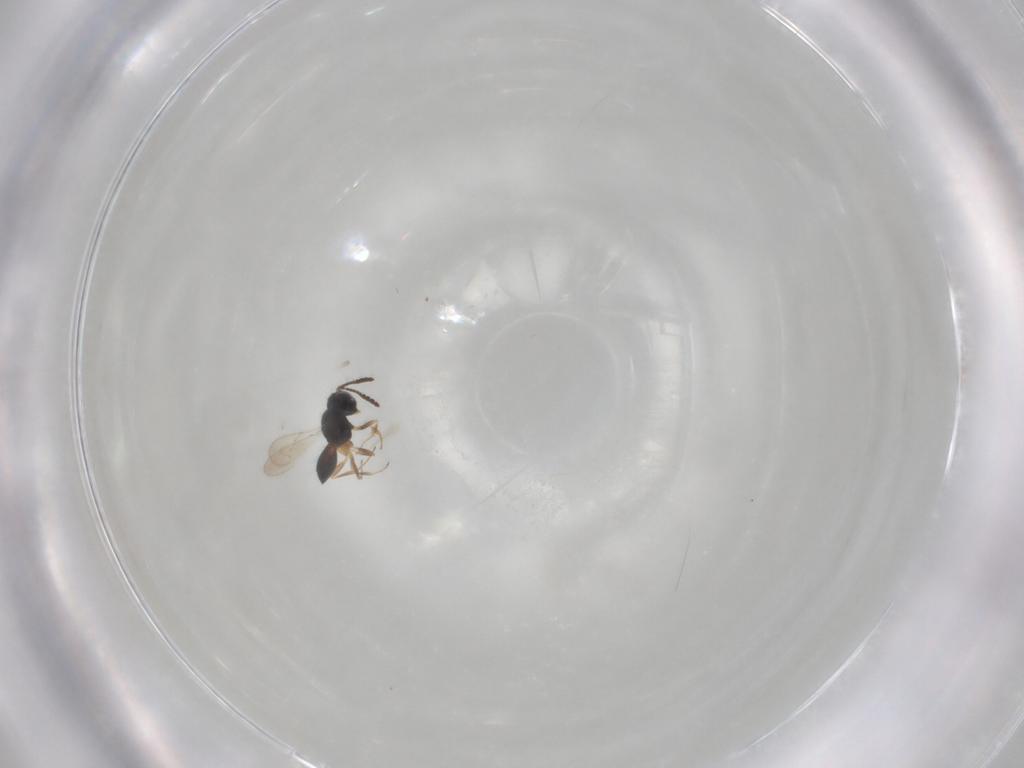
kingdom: Animalia
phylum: Arthropoda
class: Insecta
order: Hymenoptera
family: Scelionidae
